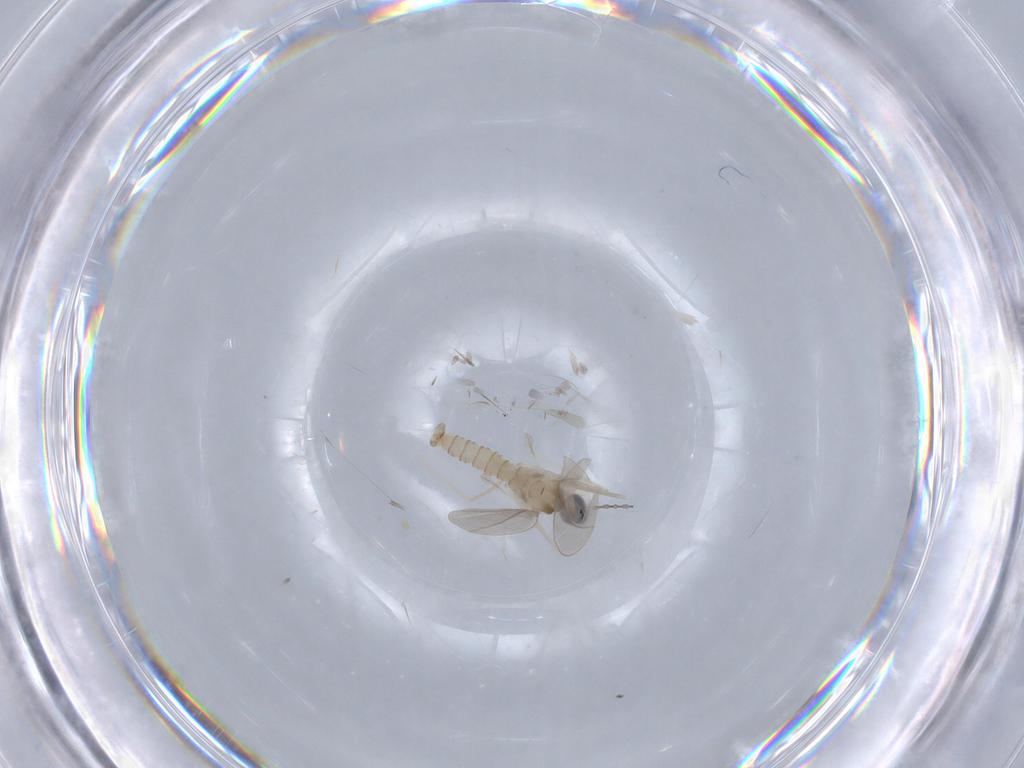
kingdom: Animalia
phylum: Arthropoda
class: Insecta
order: Diptera
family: Cecidomyiidae
